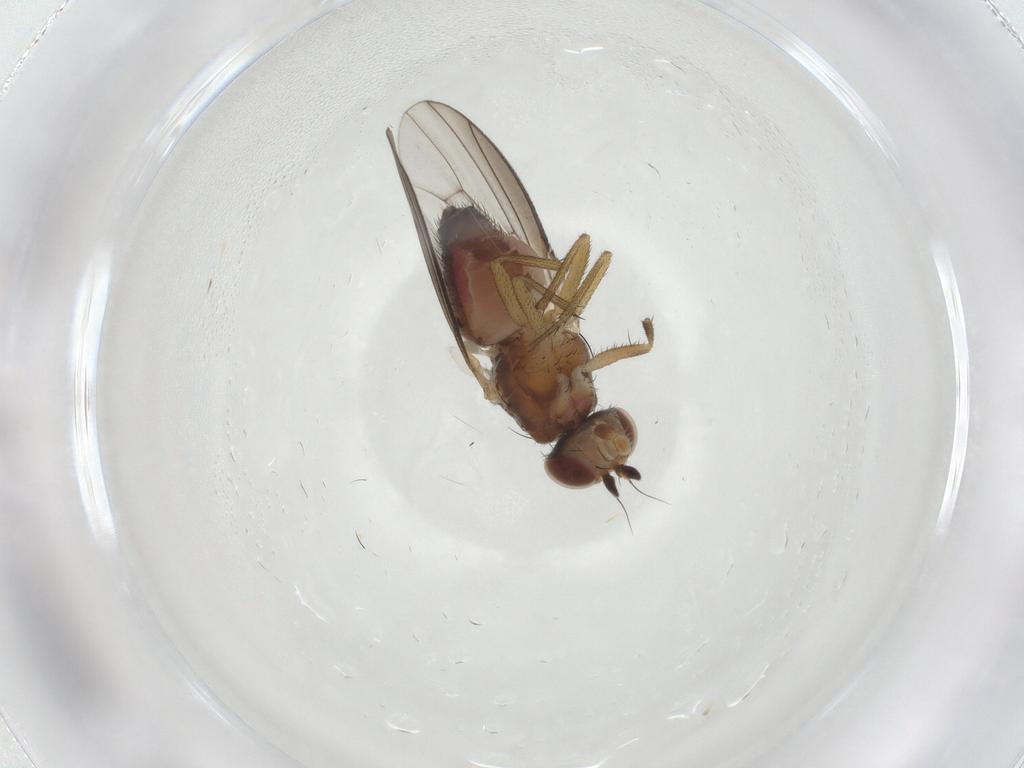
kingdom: Animalia
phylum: Arthropoda
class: Insecta
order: Diptera
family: Heleomyzidae
